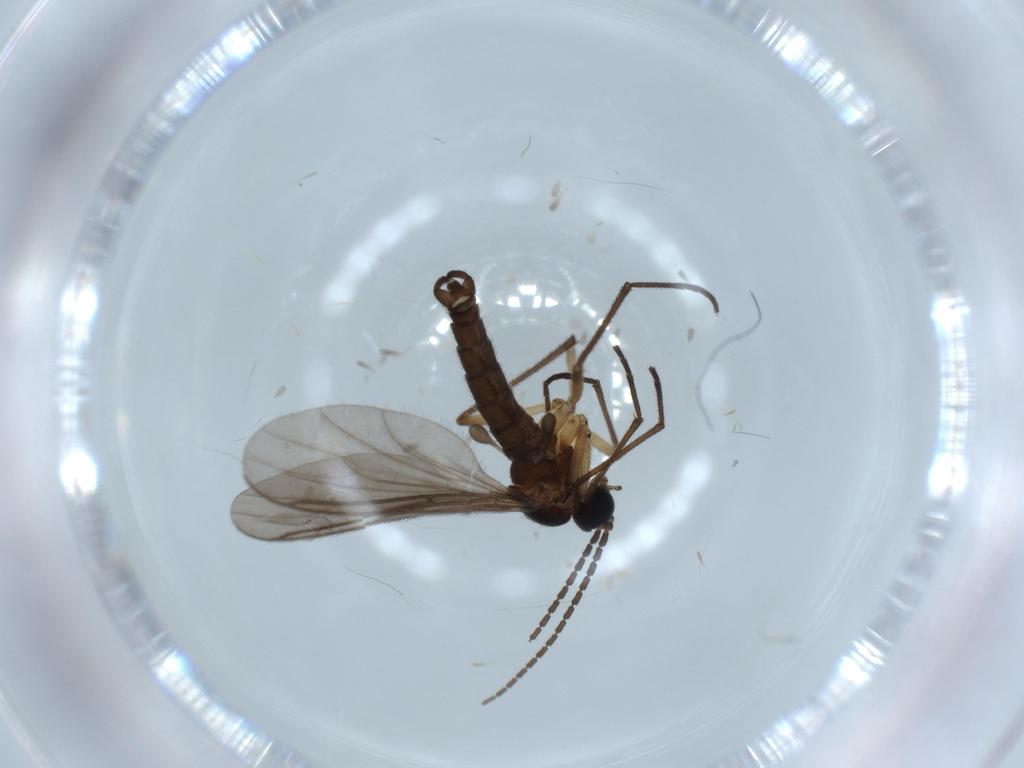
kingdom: Animalia
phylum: Arthropoda
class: Insecta
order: Diptera
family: Sciaridae
